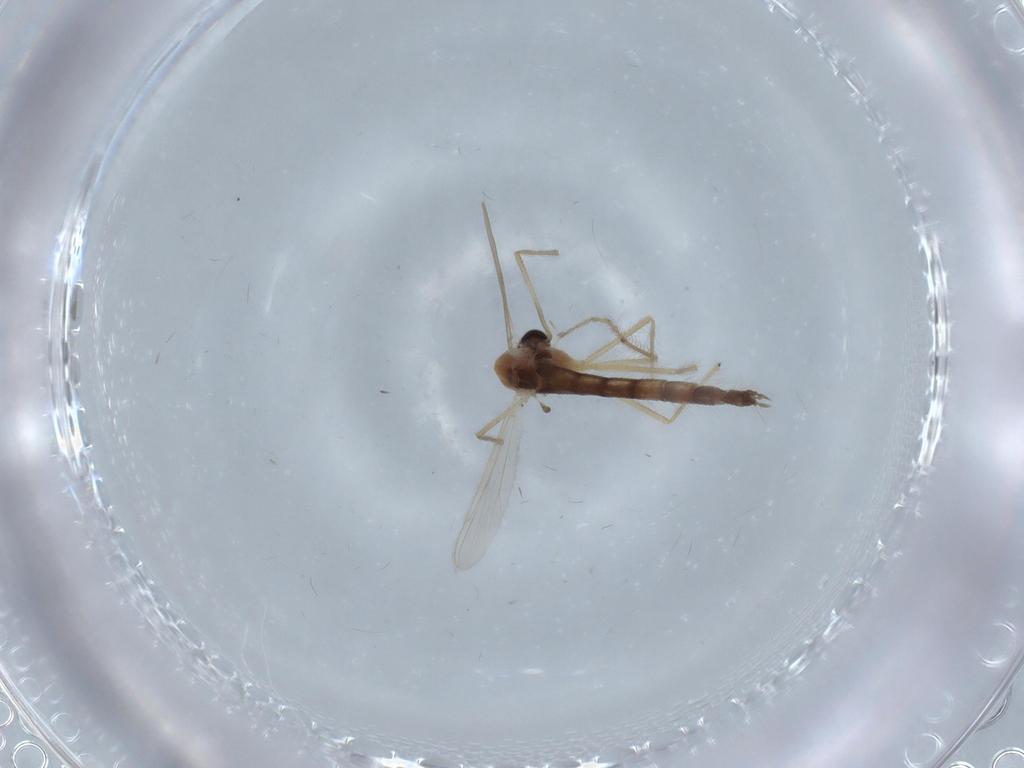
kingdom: Animalia
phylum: Arthropoda
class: Insecta
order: Diptera
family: Chironomidae
